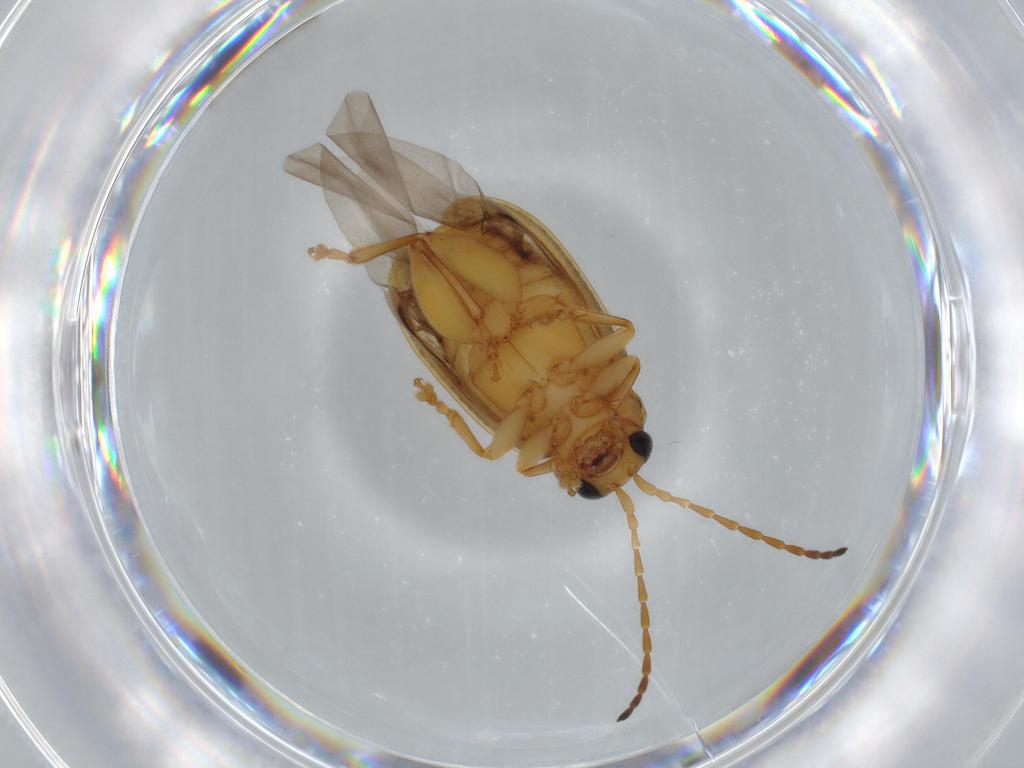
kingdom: Animalia
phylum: Arthropoda
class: Insecta
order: Coleoptera
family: Chrysomelidae
